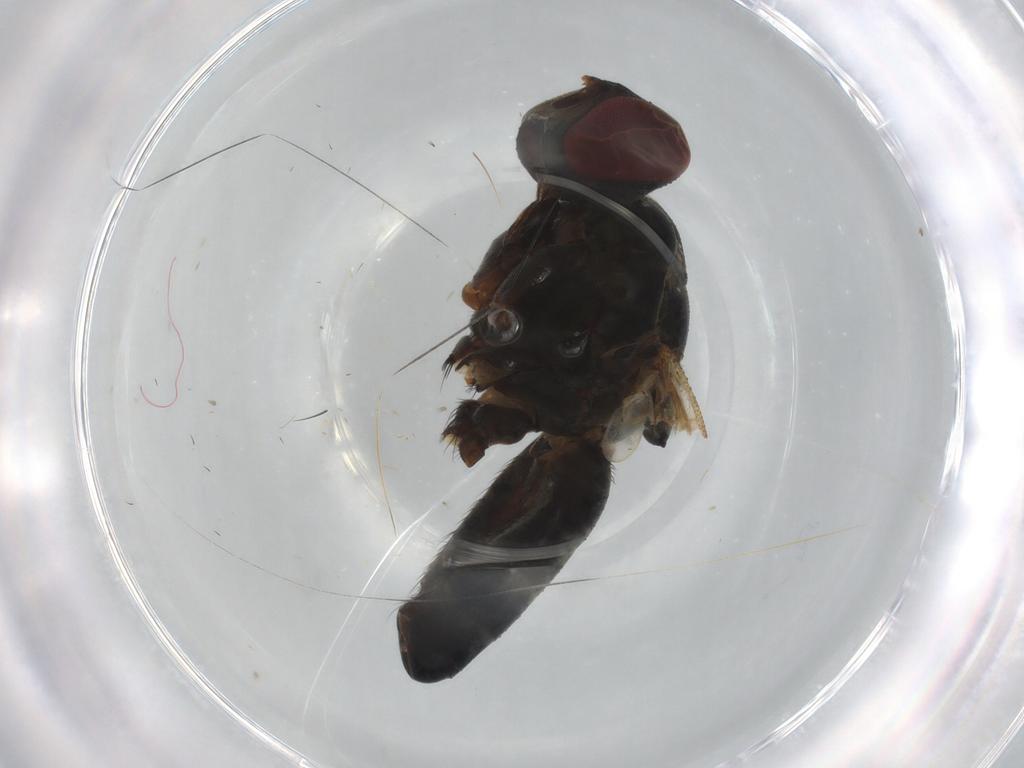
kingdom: Animalia
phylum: Arthropoda
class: Insecta
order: Diptera
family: Muscidae
